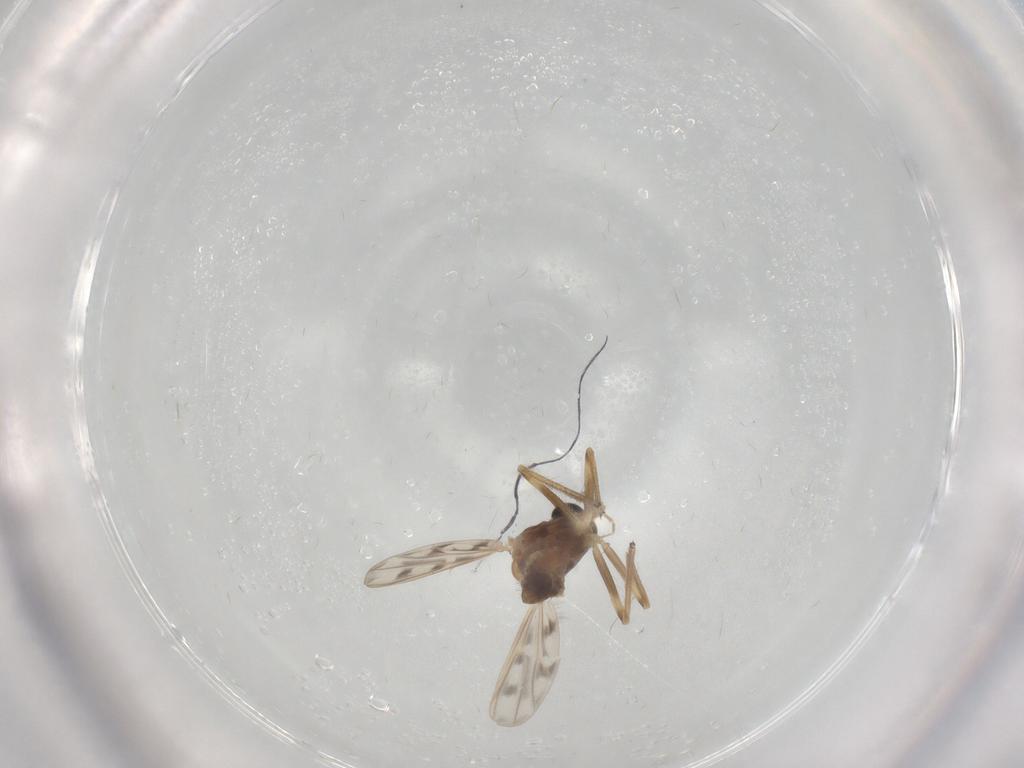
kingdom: Animalia
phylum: Arthropoda
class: Insecta
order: Diptera
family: Chironomidae
